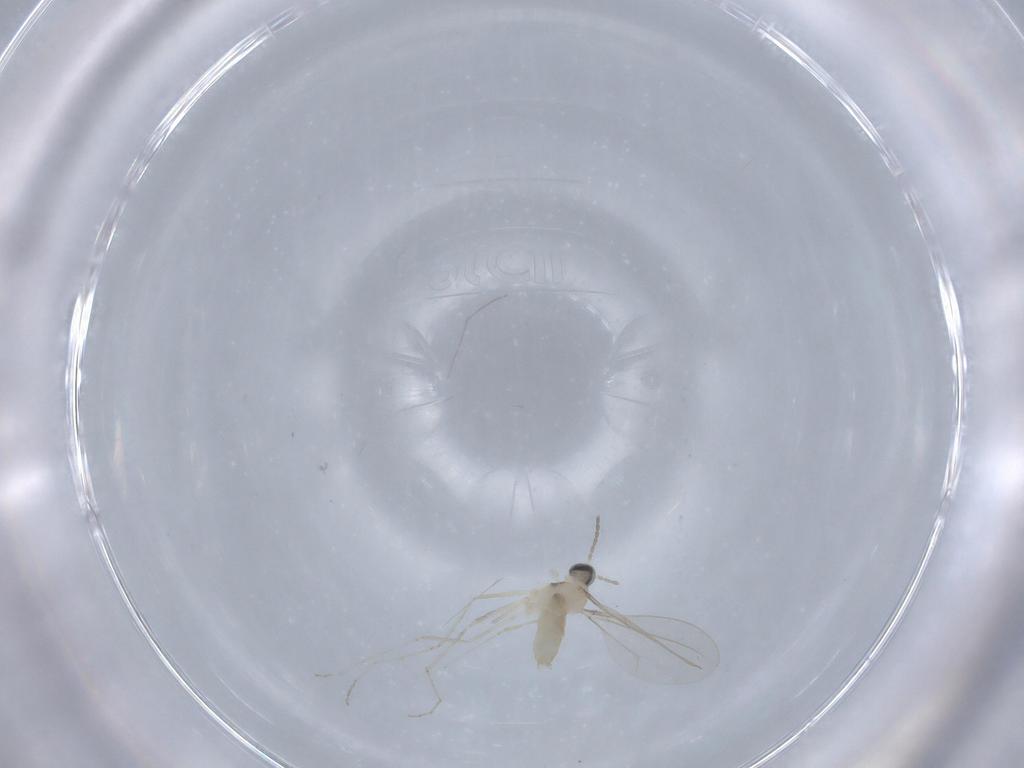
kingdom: Animalia
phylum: Arthropoda
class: Insecta
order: Diptera
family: Cecidomyiidae
